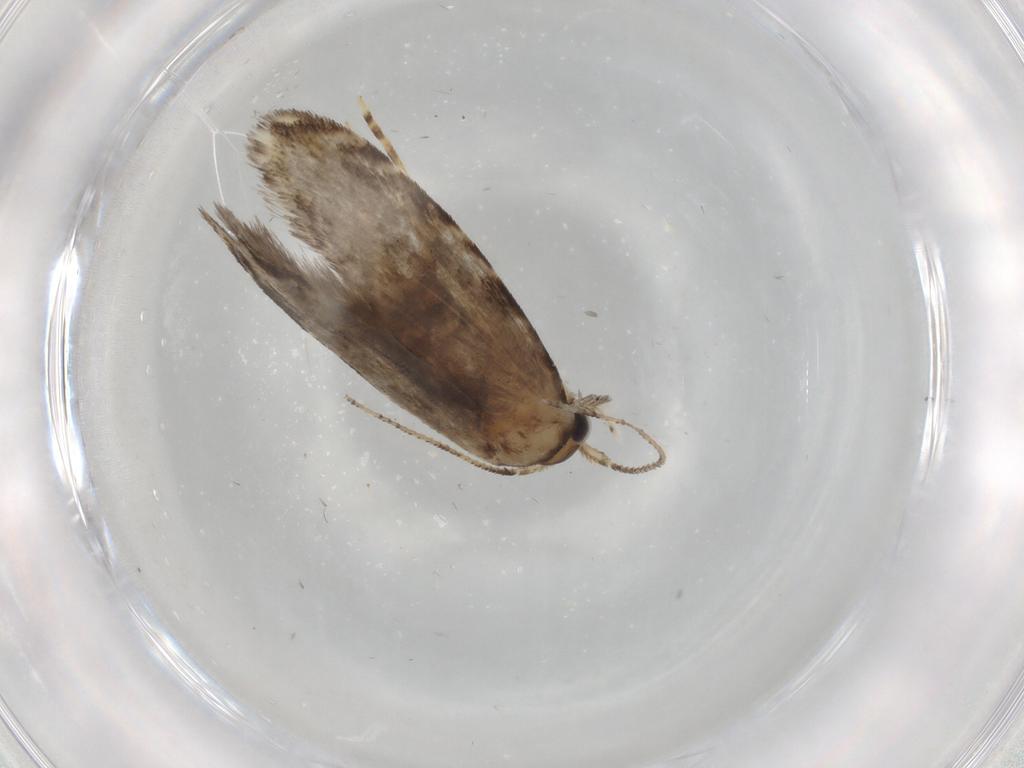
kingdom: Animalia
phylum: Arthropoda
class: Insecta
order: Lepidoptera
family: Tineidae
